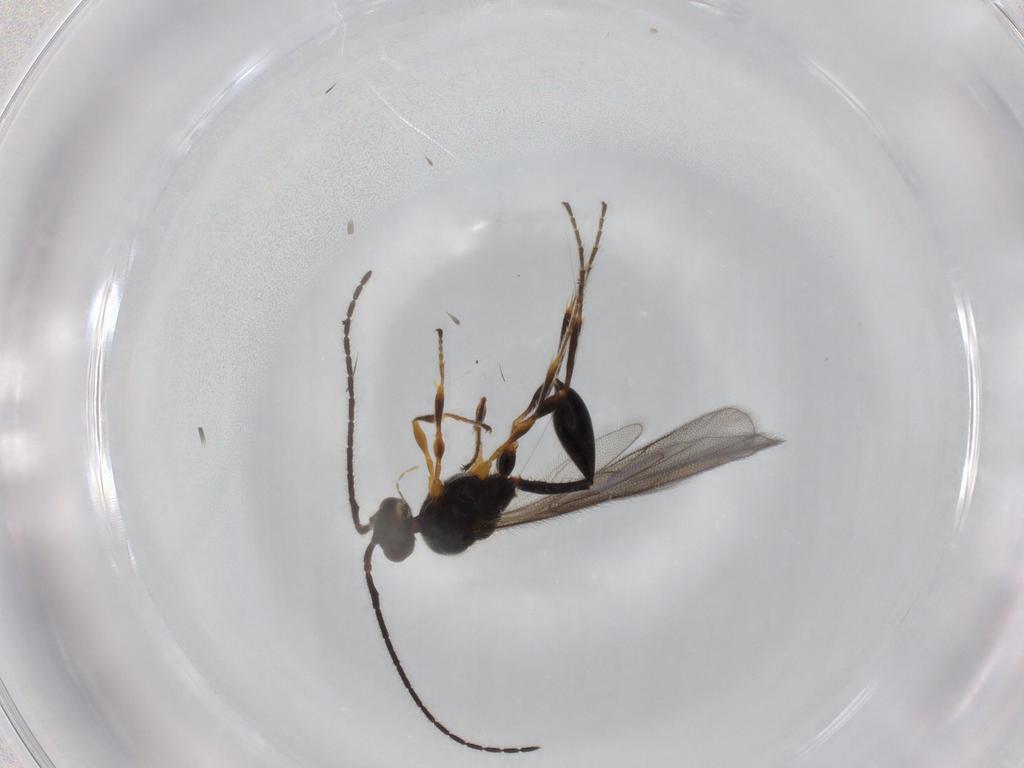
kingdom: Animalia
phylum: Arthropoda
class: Insecta
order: Hymenoptera
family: Diapriidae
